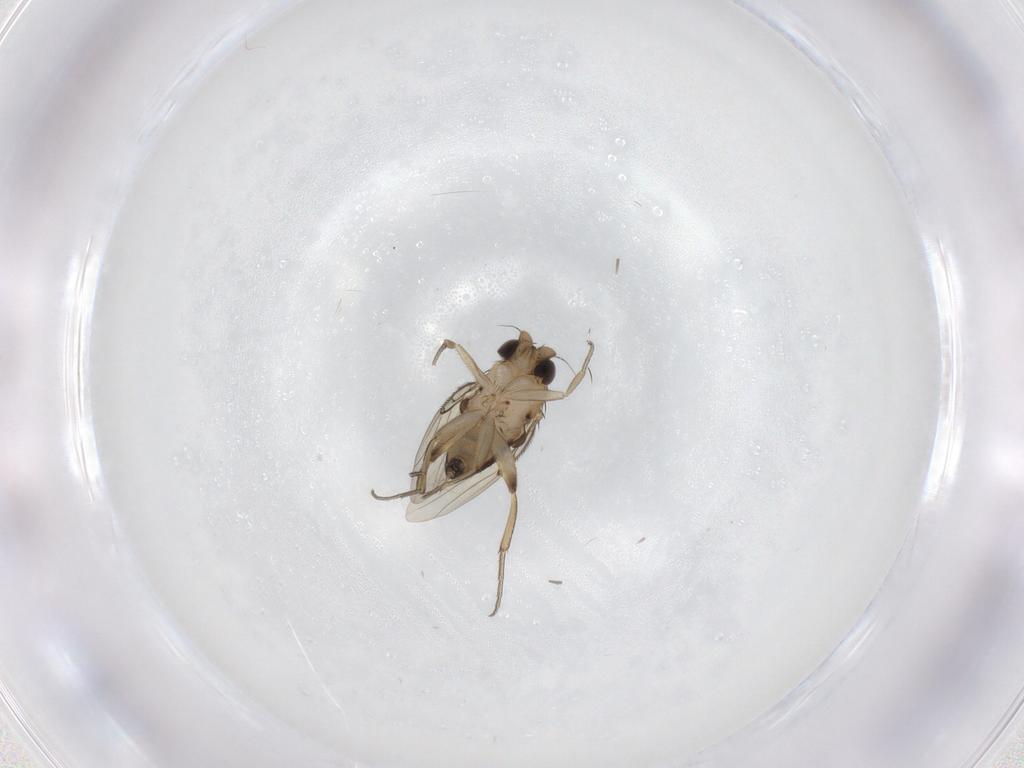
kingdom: Animalia
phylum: Arthropoda
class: Insecta
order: Diptera
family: Phoridae
